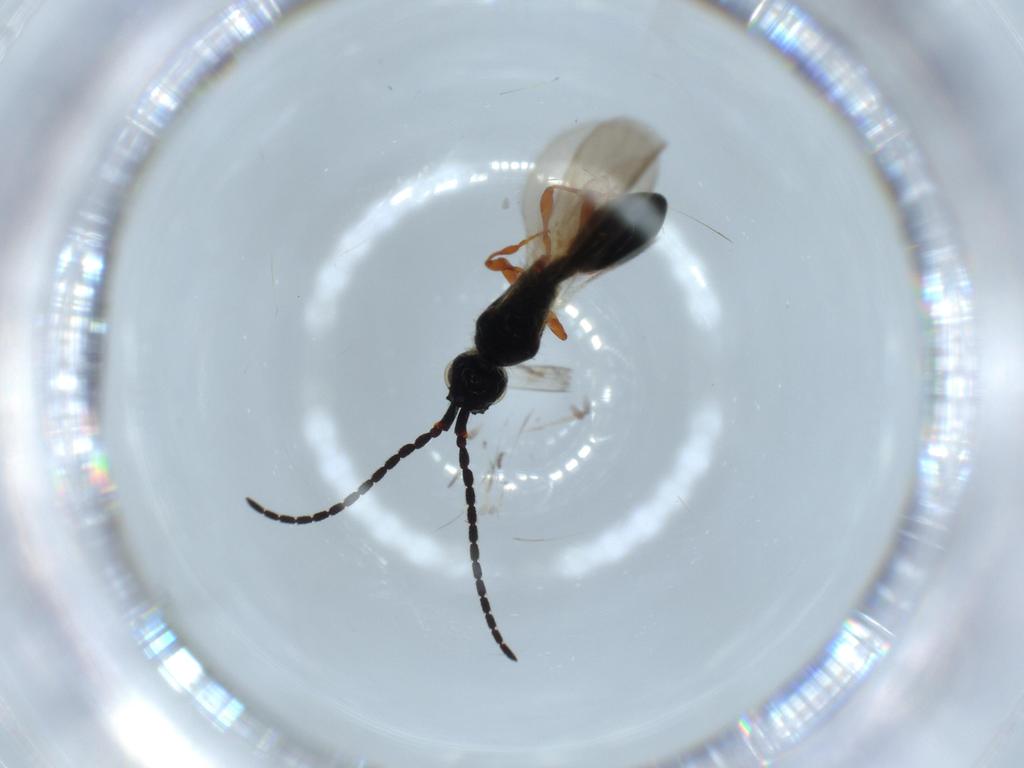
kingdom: Animalia
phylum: Arthropoda
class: Insecta
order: Hymenoptera
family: Diapriidae
